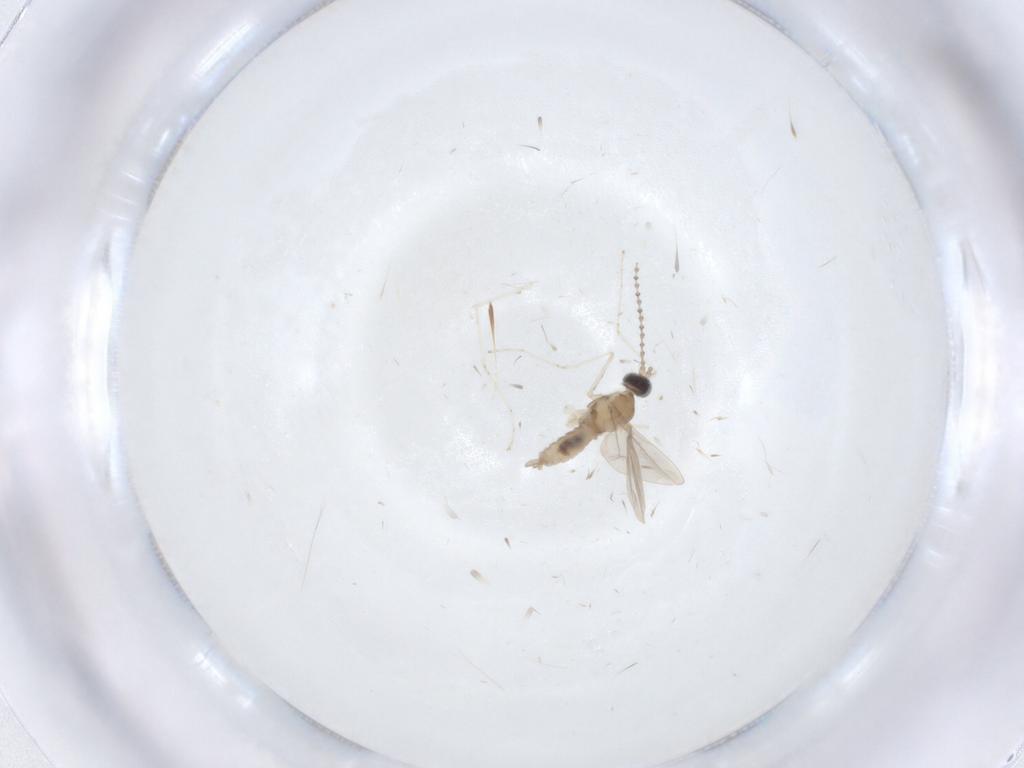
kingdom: Animalia
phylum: Arthropoda
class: Insecta
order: Diptera
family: Cecidomyiidae
